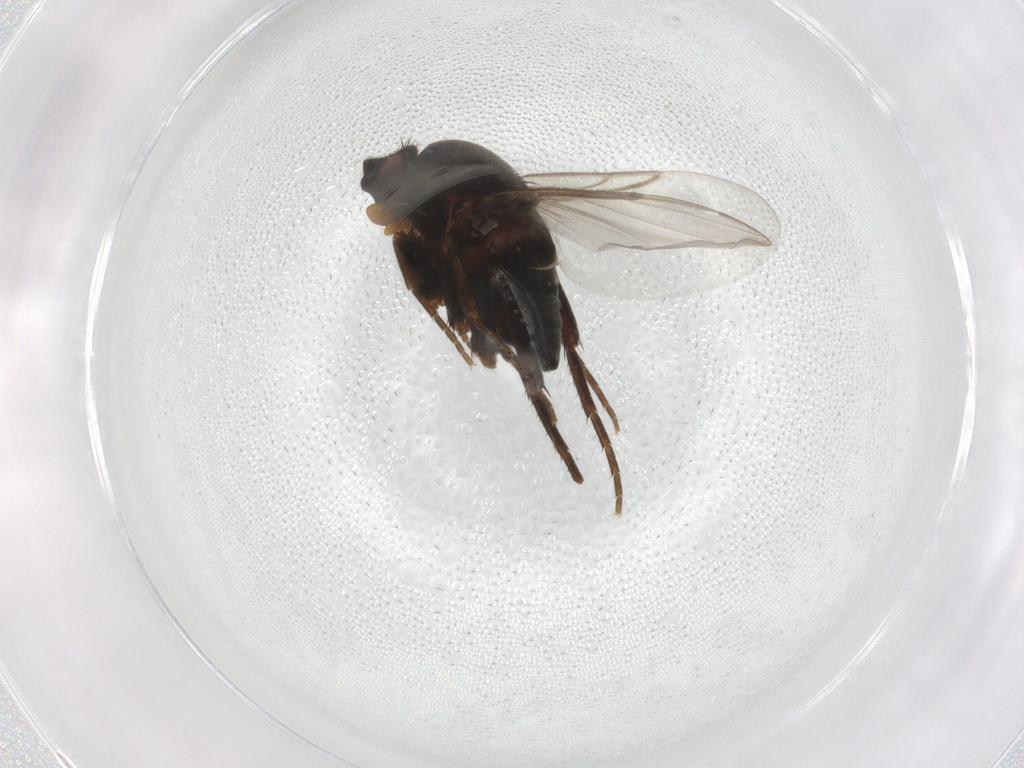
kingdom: Animalia
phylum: Arthropoda
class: Insecta
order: Diptera
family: Phoridae
